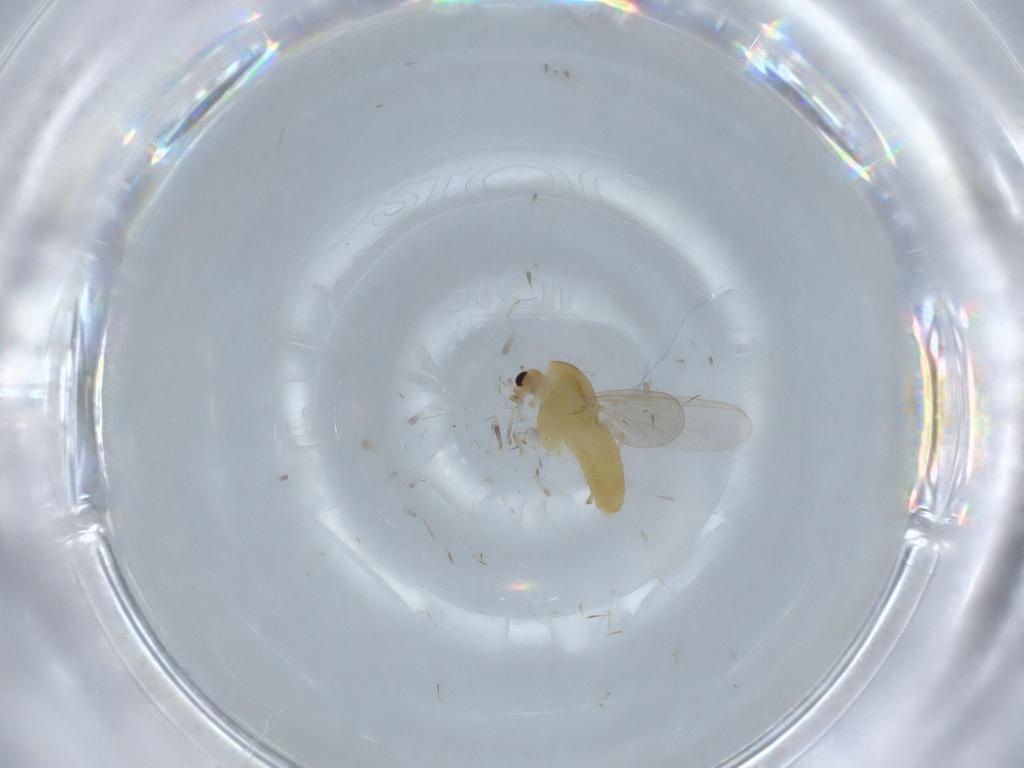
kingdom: Animalia
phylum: Arthropoda
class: Insecta
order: Diptera
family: Chironomidae
